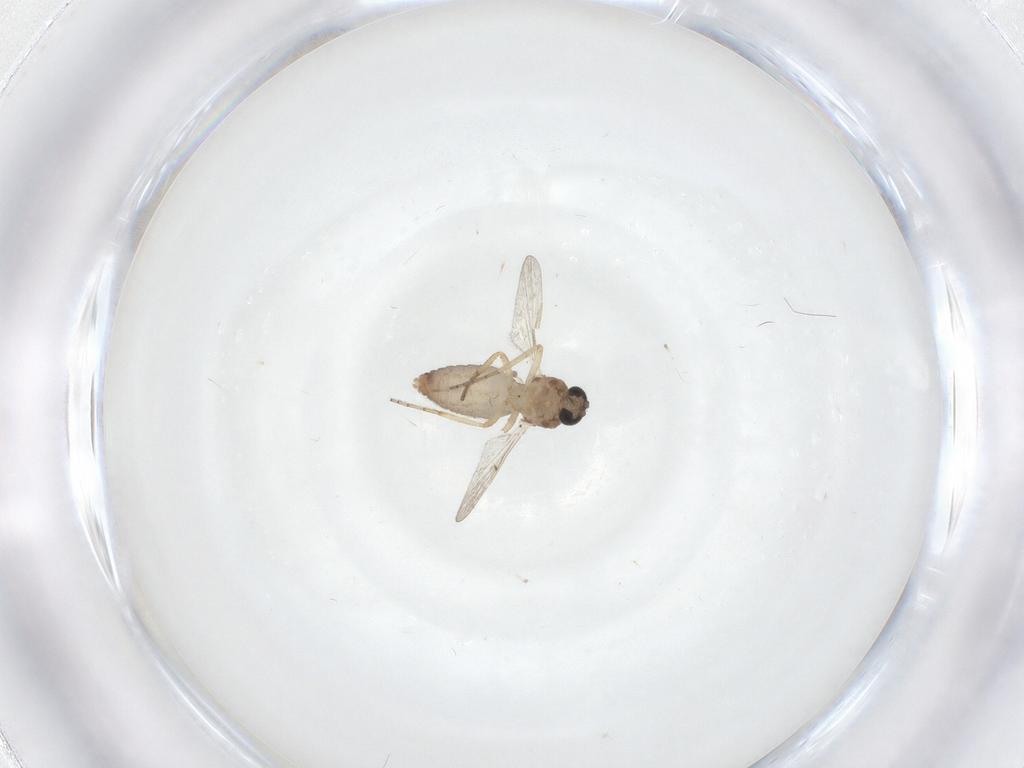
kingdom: Animalia
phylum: Arthropoda
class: Insecta
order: Diptera
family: Ceratopogonidae
